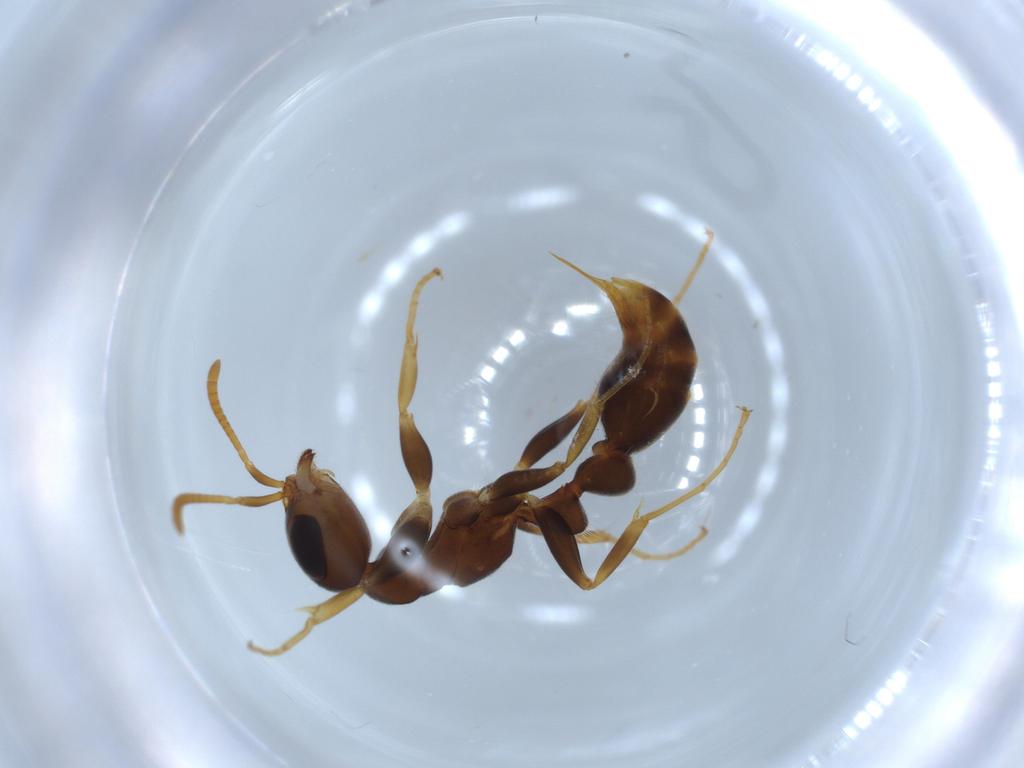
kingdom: Animalia
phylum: Arthropoda
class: Insecta
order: Hymenoptera
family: Formicidae
